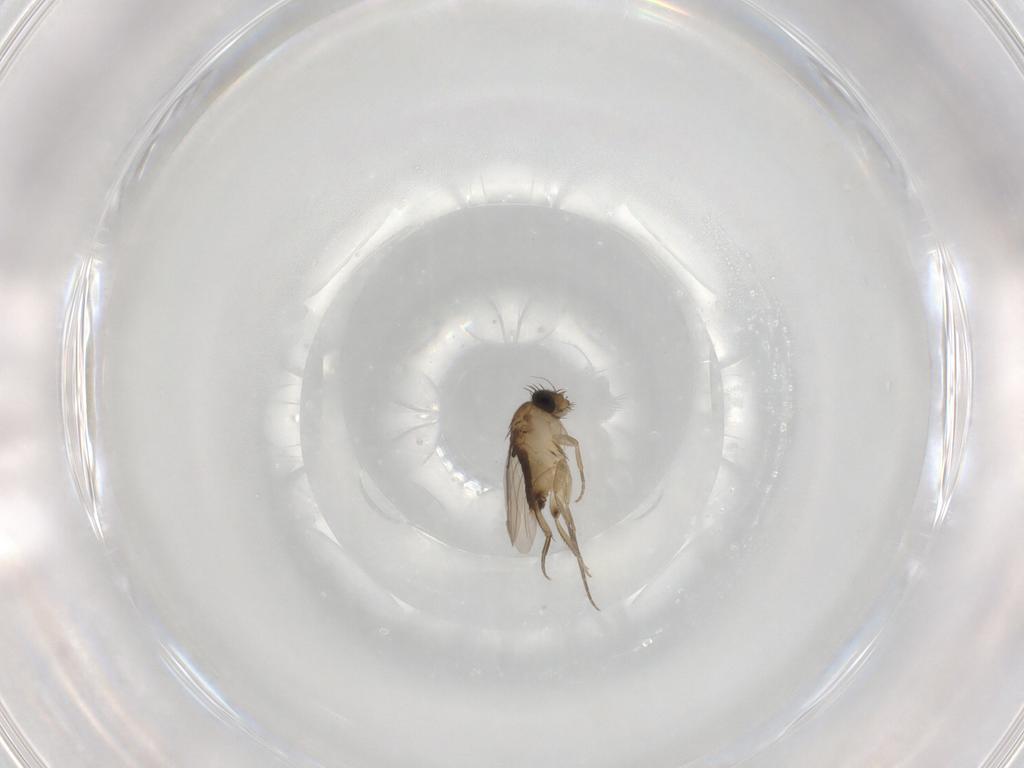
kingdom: Animalia
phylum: Arthropoda
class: Insecta
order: Diptera
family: Phoridae
